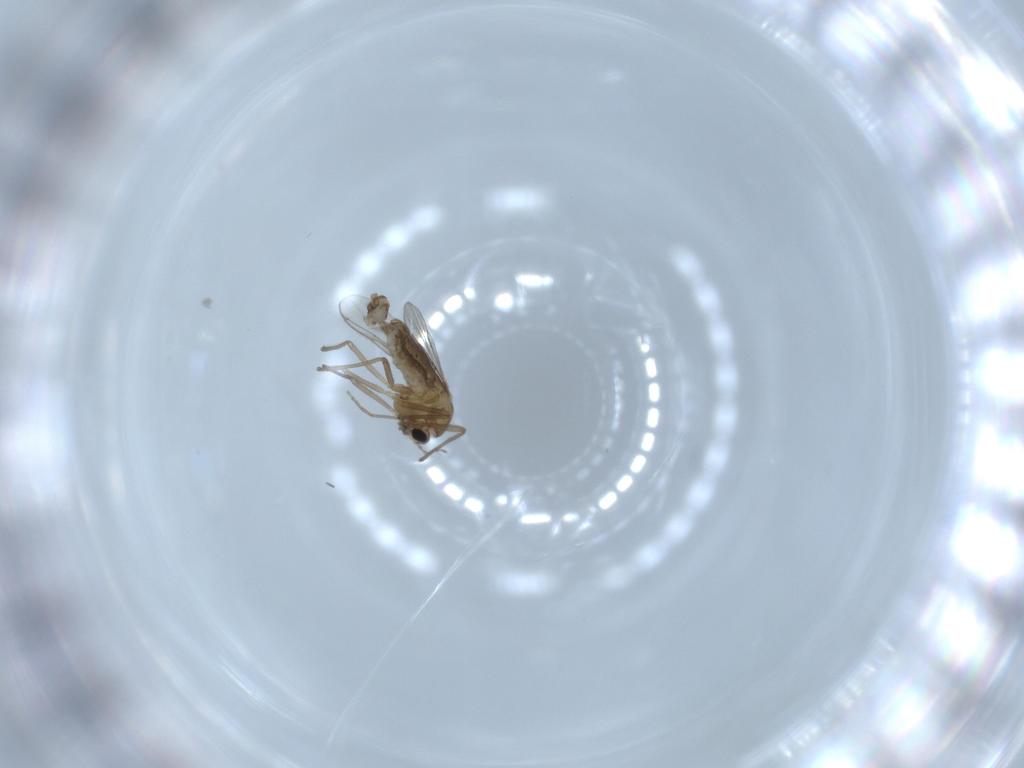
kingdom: Animalia
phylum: Arthropoda
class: Insecta
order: Diptera
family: Chironomidae
